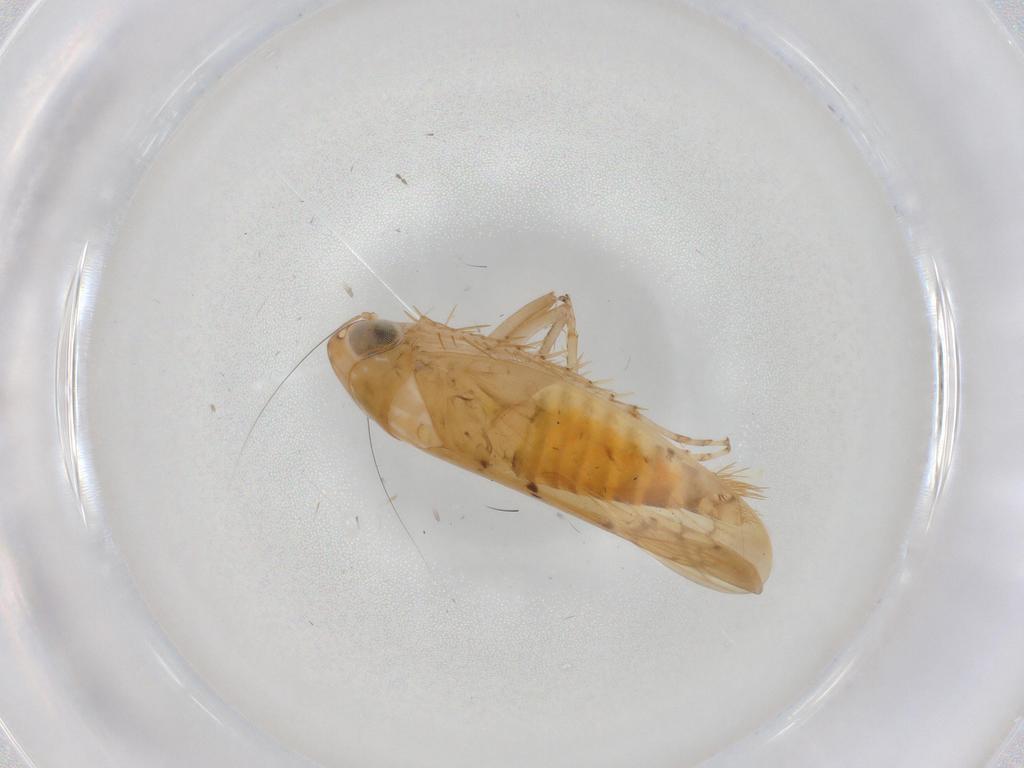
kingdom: Animalia
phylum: Arthropoda
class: Insecta
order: Hemiptera
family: Cicadellidae
